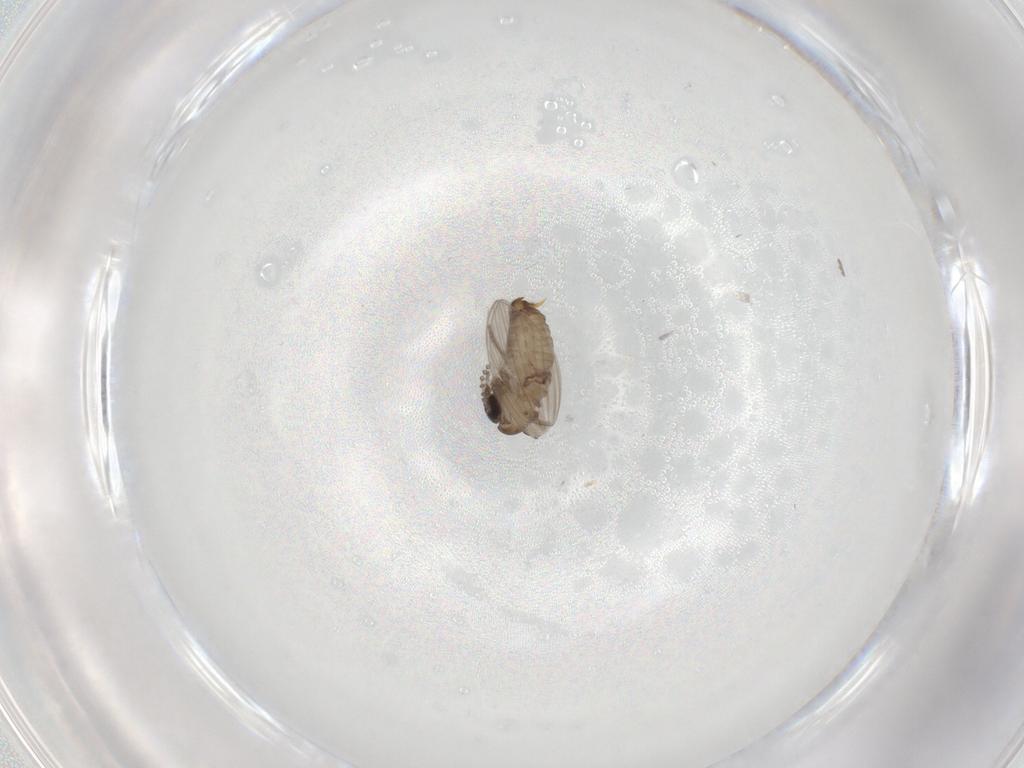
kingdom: Animalia
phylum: Arthropoda
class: Insecta
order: Diptera
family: Psychodidae
